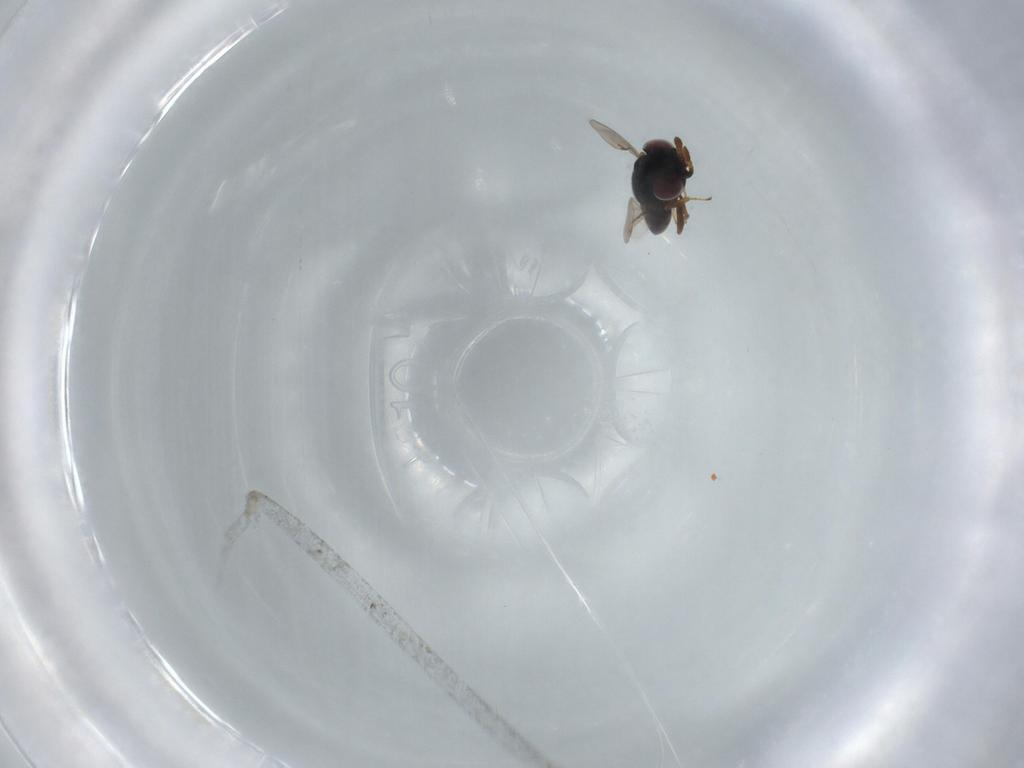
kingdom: Animalia
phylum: Arthropoda
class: Insecta
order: Hymenoptera
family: Eunotidae
